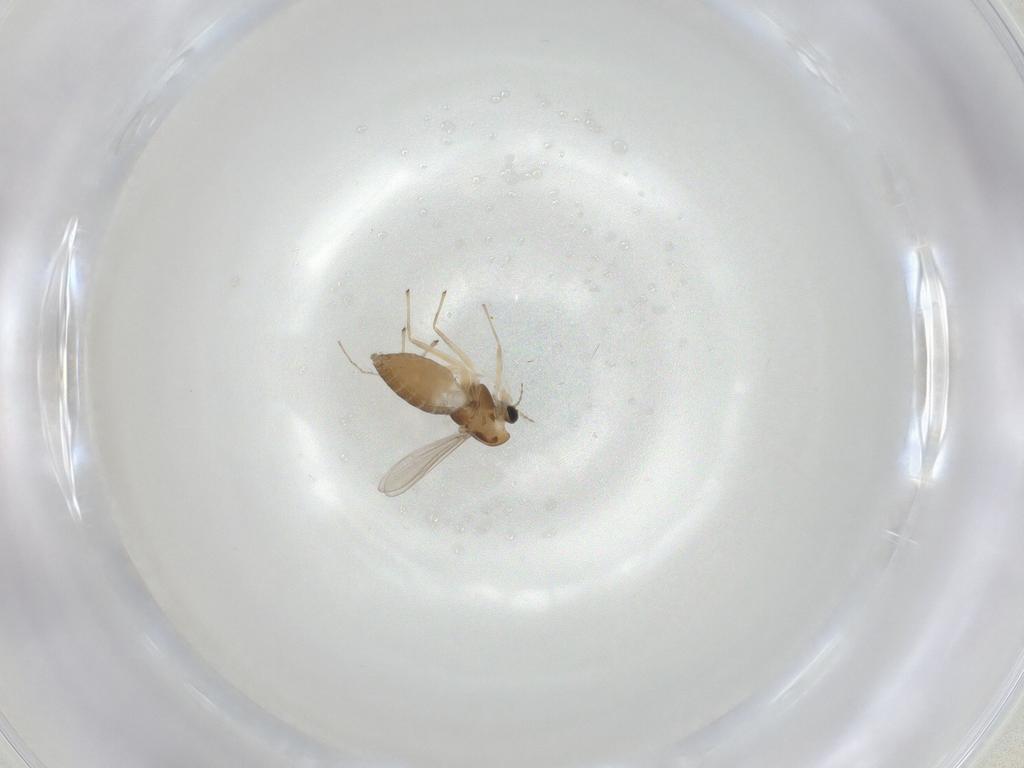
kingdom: Animalia
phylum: Arthropoda
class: Insecta
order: Diptera
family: Chironomidae
